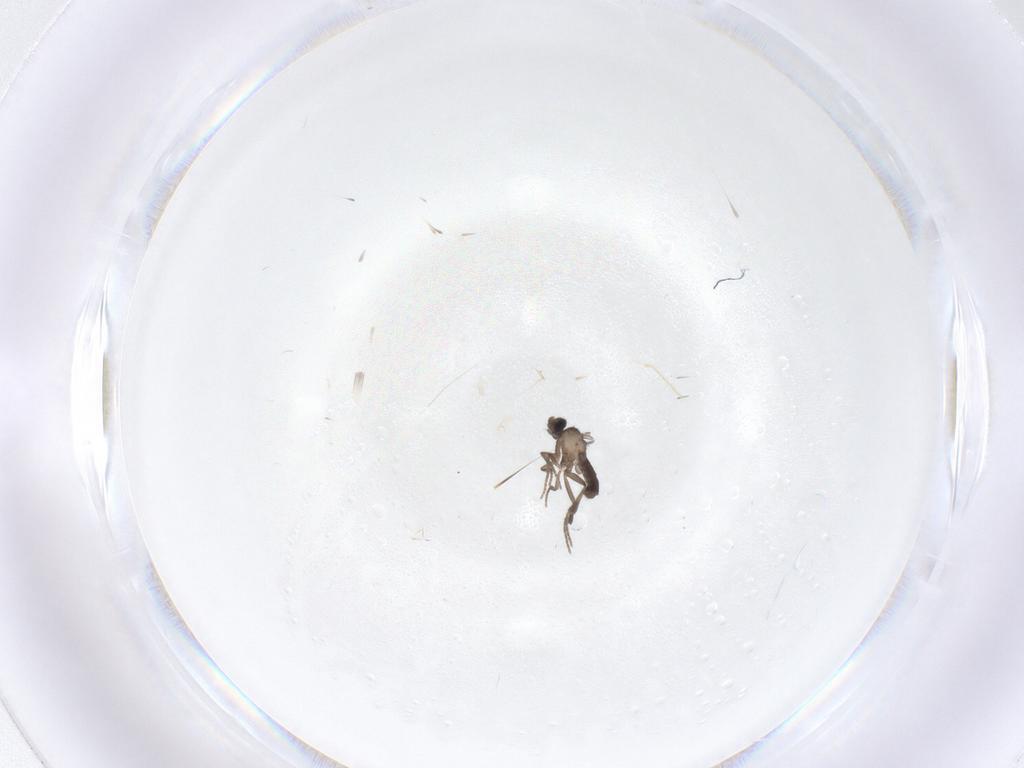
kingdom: Animalia
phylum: Arthropoda
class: Insecta
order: Diptera
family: Phoridae
